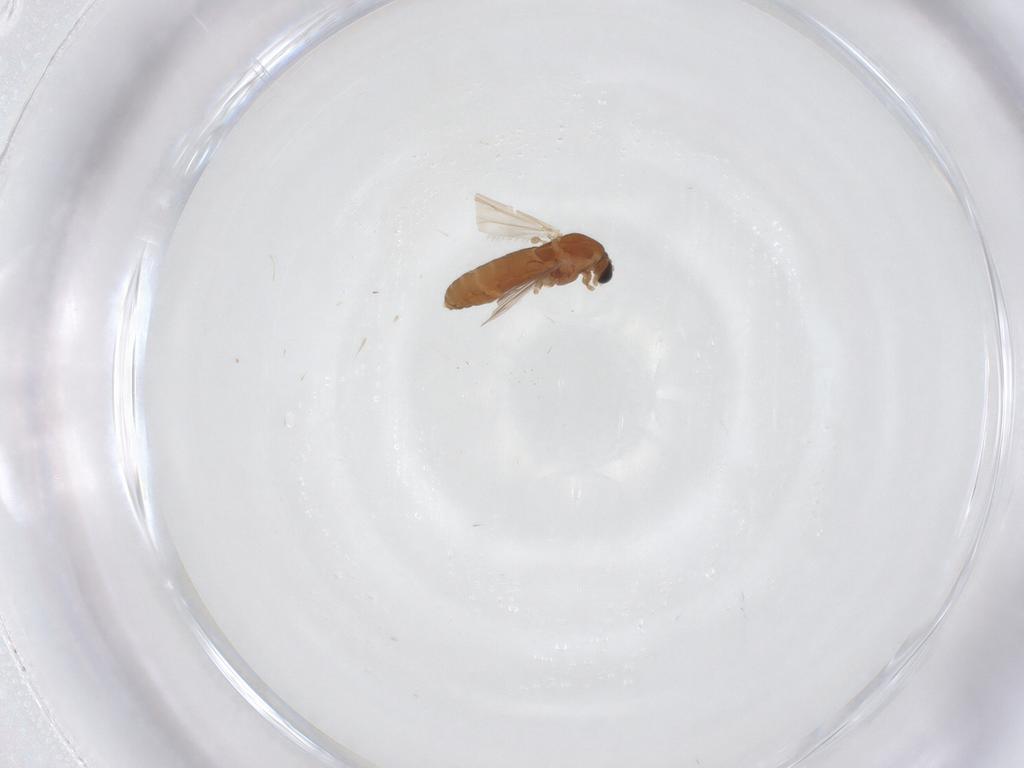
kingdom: Animalia
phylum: Arthropoda
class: Insecta
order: Diptera
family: Chironomidae
